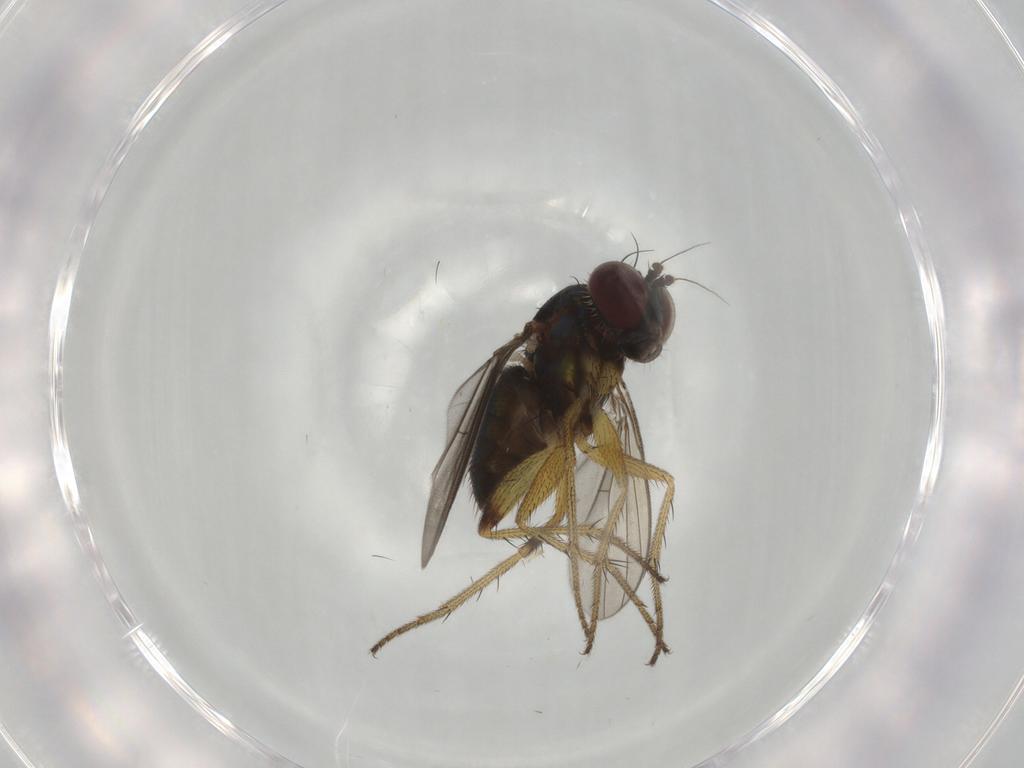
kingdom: Animalia
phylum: Arthropoda
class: Insecta
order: Diptera
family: Dolichopodidae
